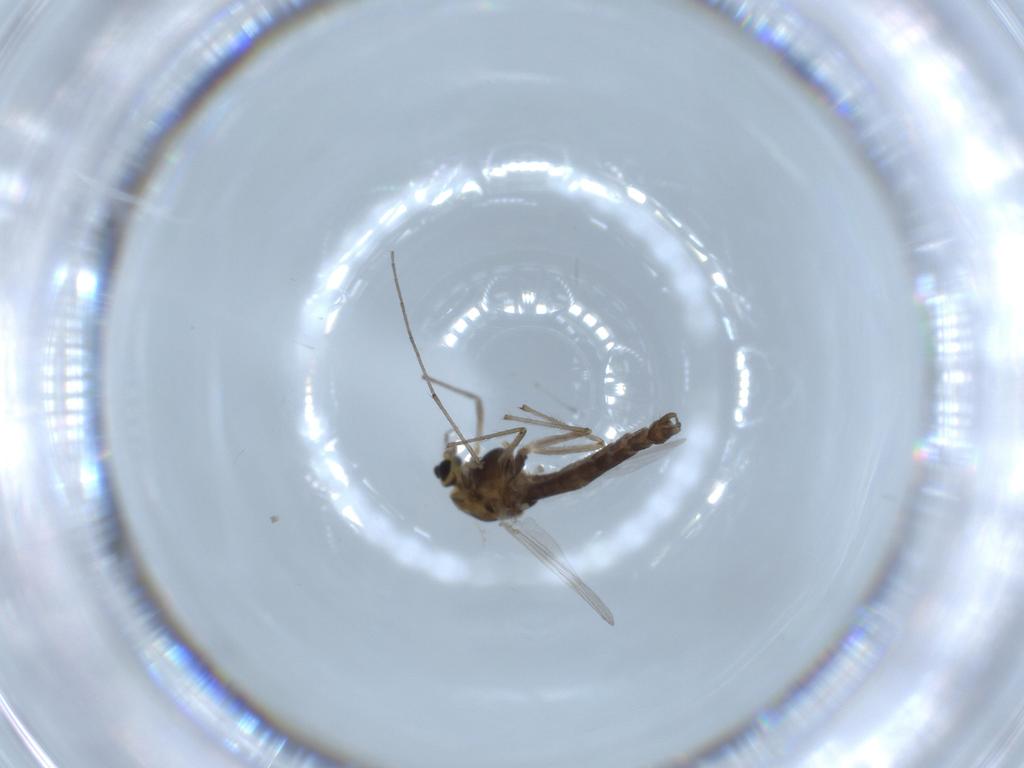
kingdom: Animalia
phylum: Arthropoda
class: Insecta
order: Diptera
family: Chironomidae
